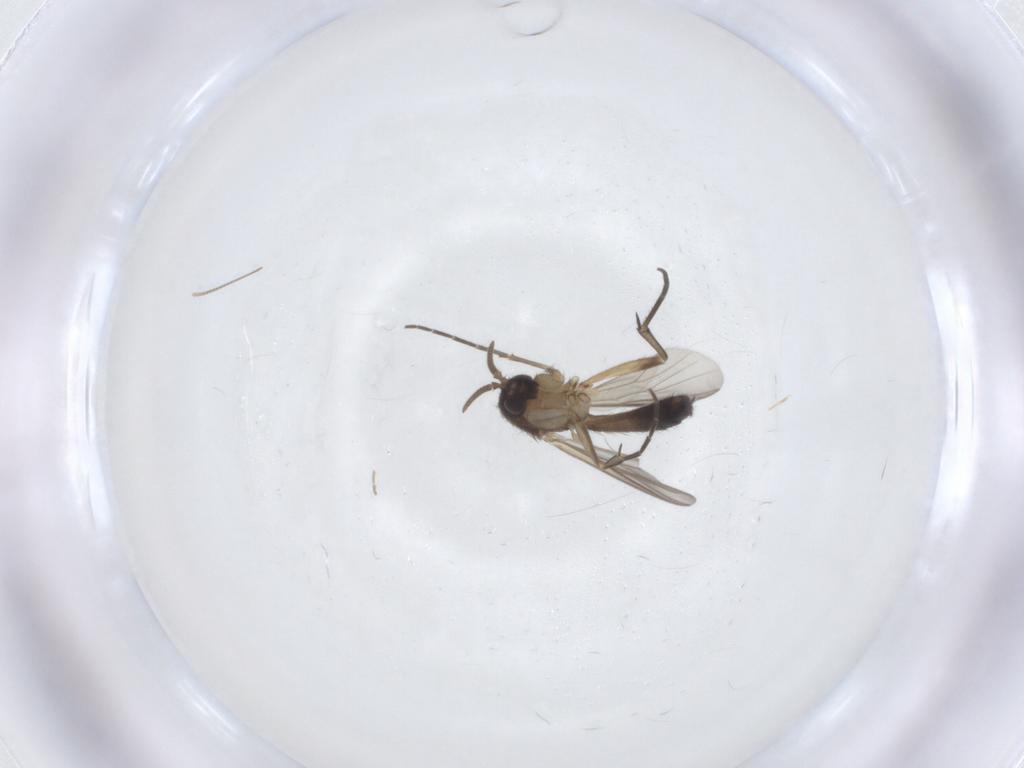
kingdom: Animalia
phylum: Arthropoda
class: Insecta
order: Diptera
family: Mycetophilidae
